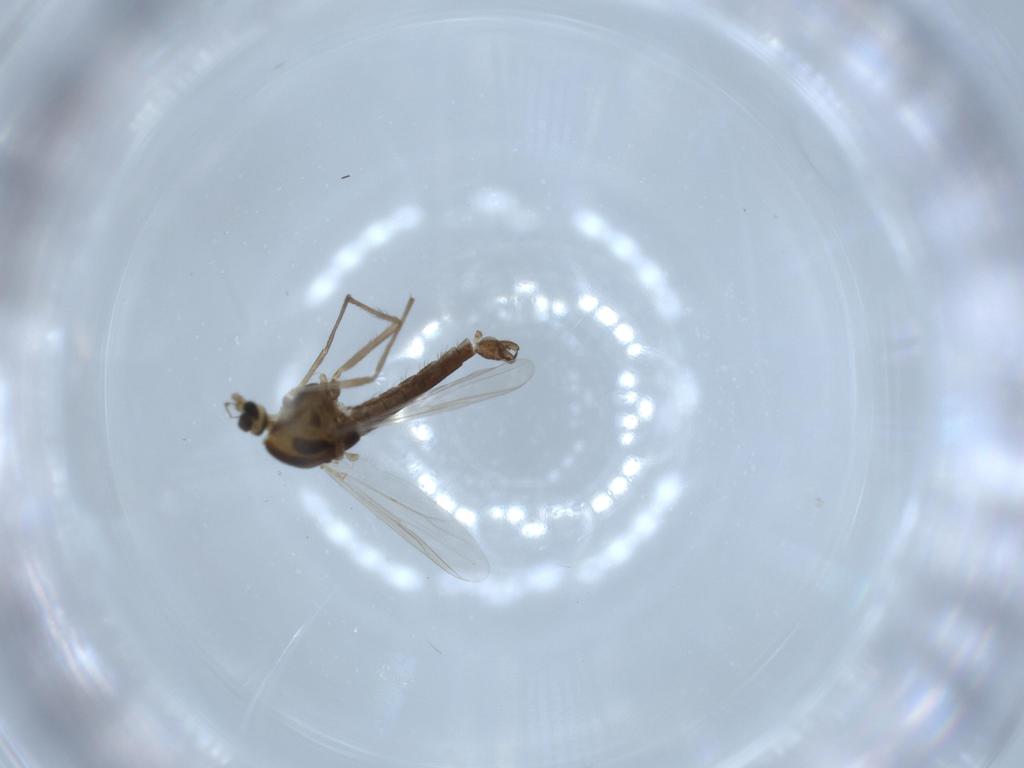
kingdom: Animalia
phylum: Arthropoda
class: Insecta
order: Diptera
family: Chironomidae
